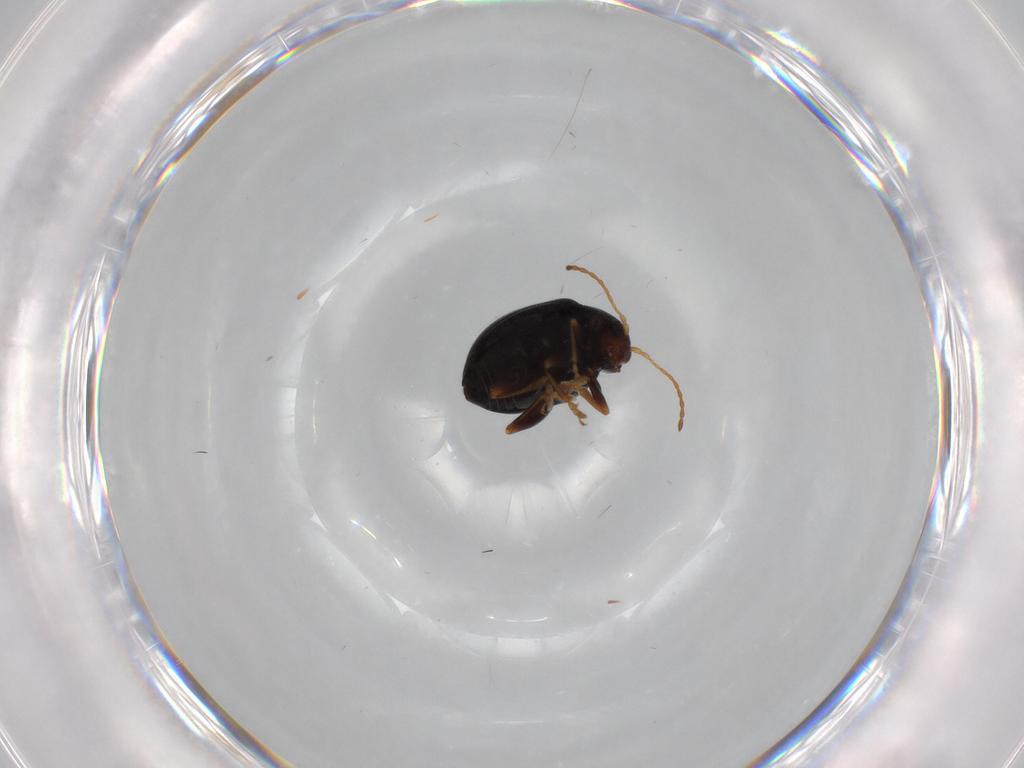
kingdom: Animalia
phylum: Arthropoda
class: Insecta
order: Coleoptera
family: Chrysomelidae
